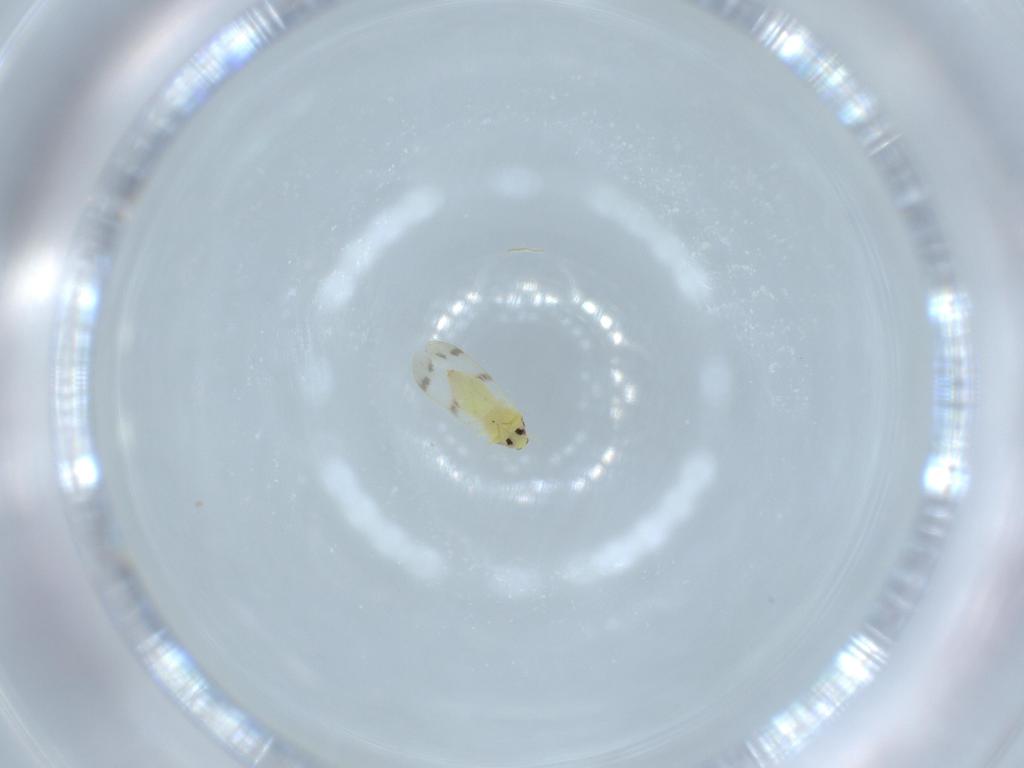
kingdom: Animalia
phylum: Arthropoda
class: Insecta
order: Hemiptera
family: Aleyrodidae
